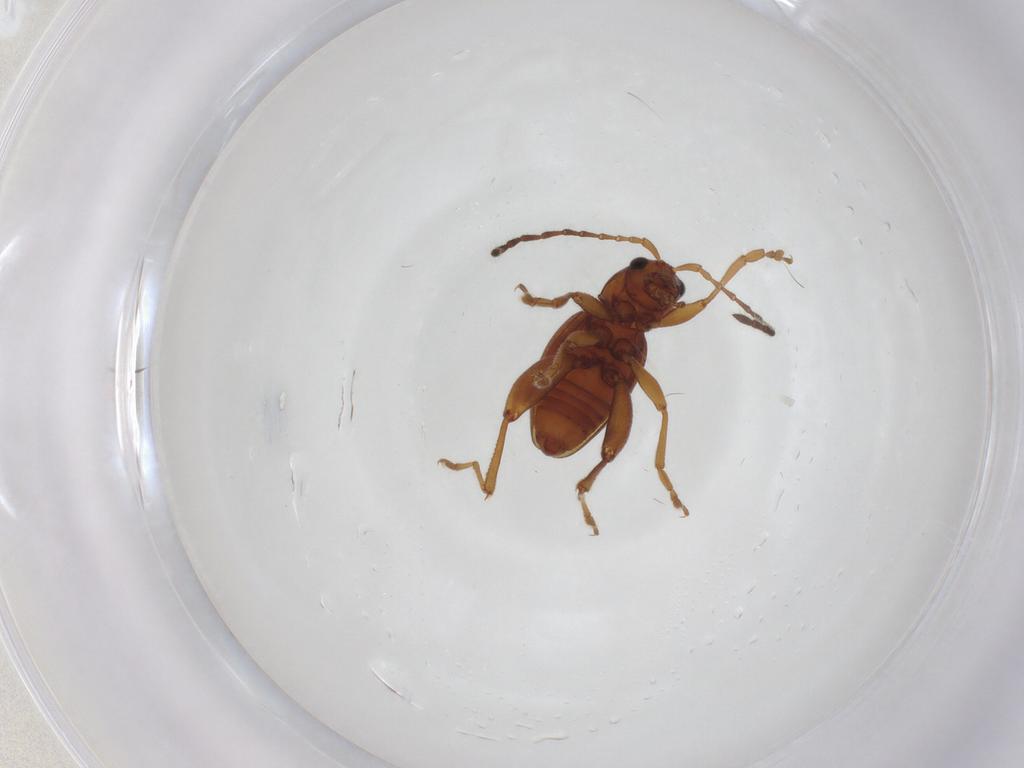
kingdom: Animalia
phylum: Arthropoda
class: Insecta
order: Coleoptera
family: Chrysomelidae
